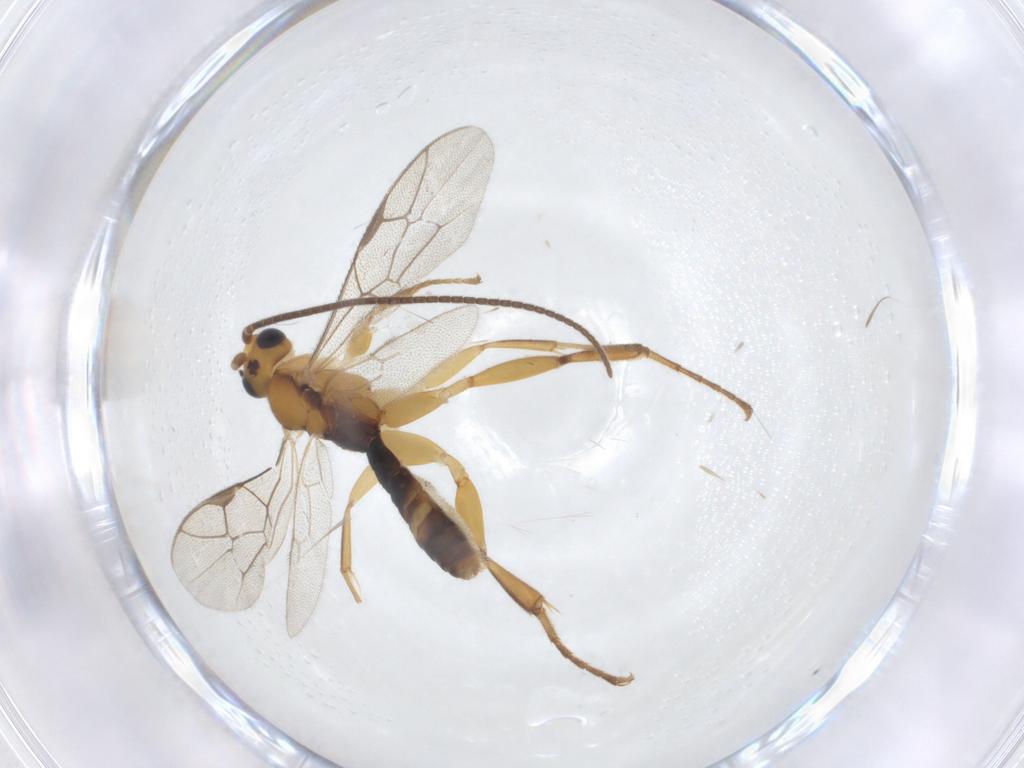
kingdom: Animalia
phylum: Arthropoda
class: Insecta
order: Hymenoptera
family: Ichneumonidae
